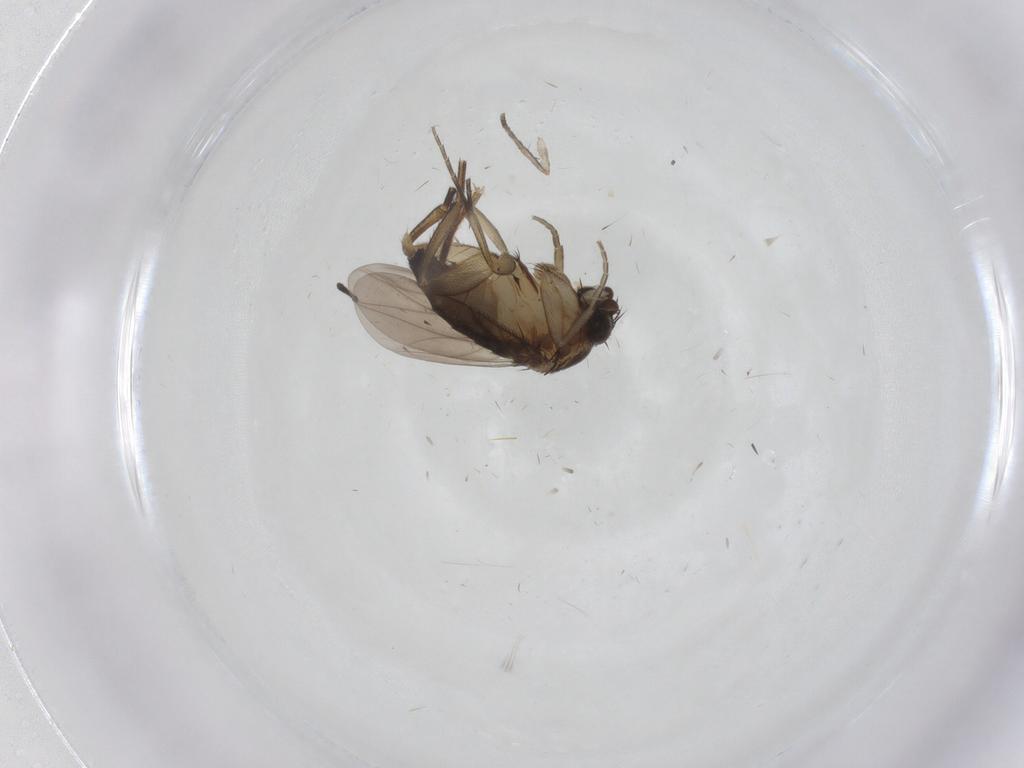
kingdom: Animalia
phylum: Arthropoda
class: Insecta
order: Diptera
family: Phoridae
